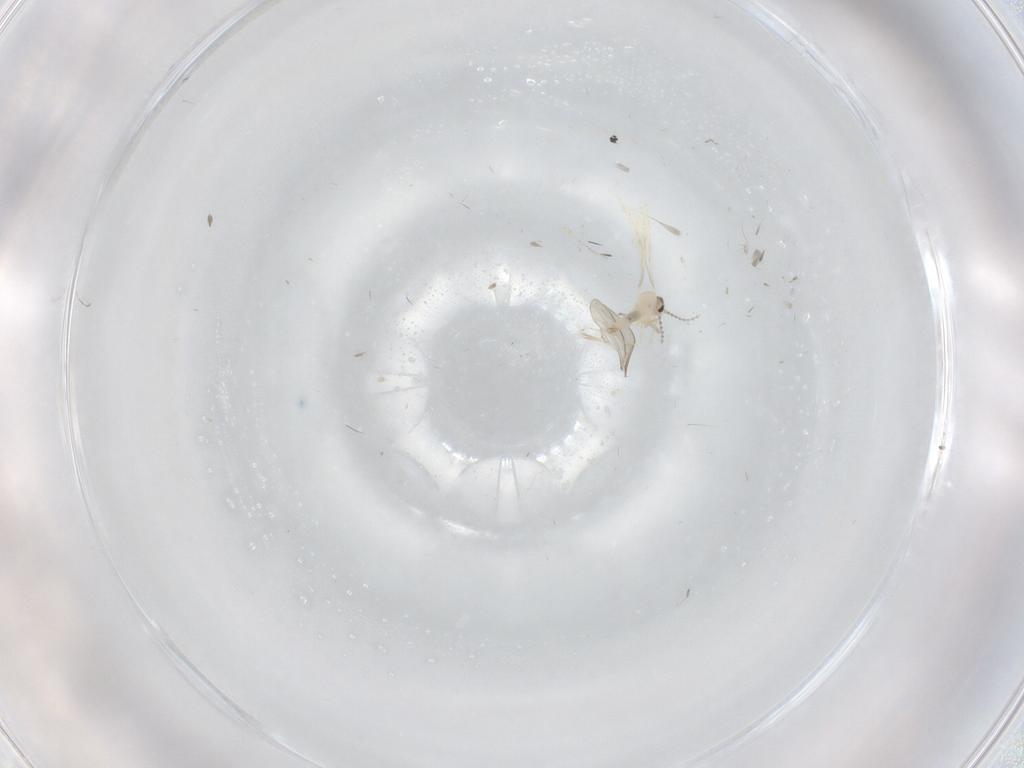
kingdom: Animalia
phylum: Arthropoda
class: Insecta
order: Diptera
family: Cecidomyiidae
